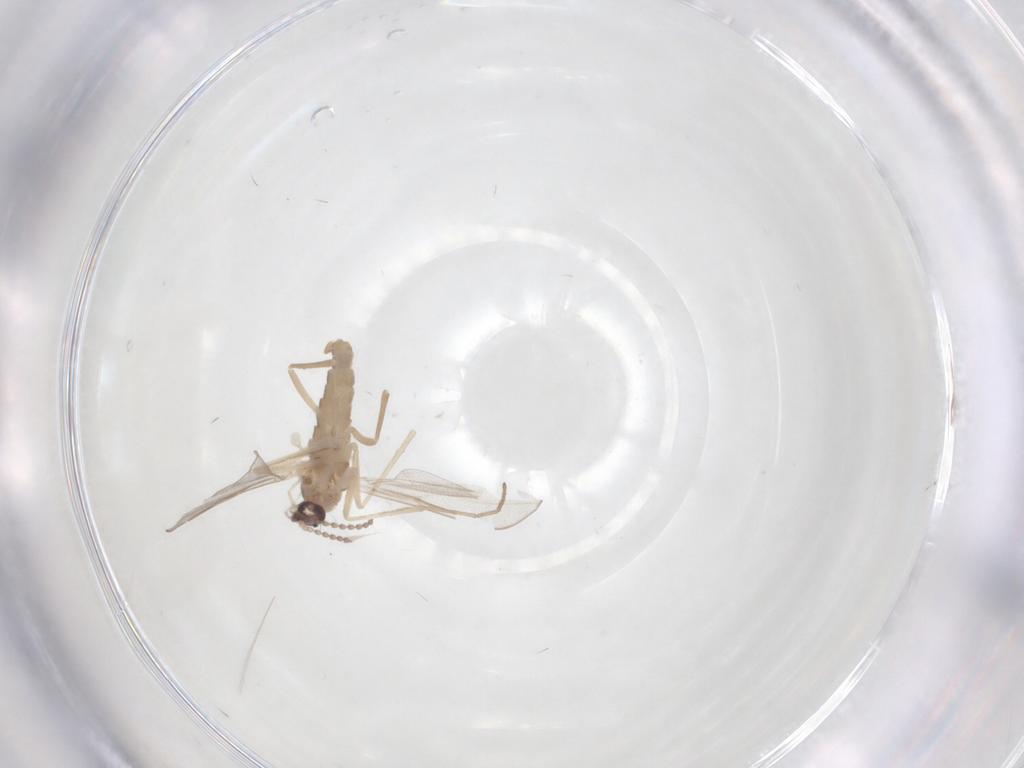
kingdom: Animalia
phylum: Arthropoda
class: Insecta
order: Diptera
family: Cecidomyiidae
